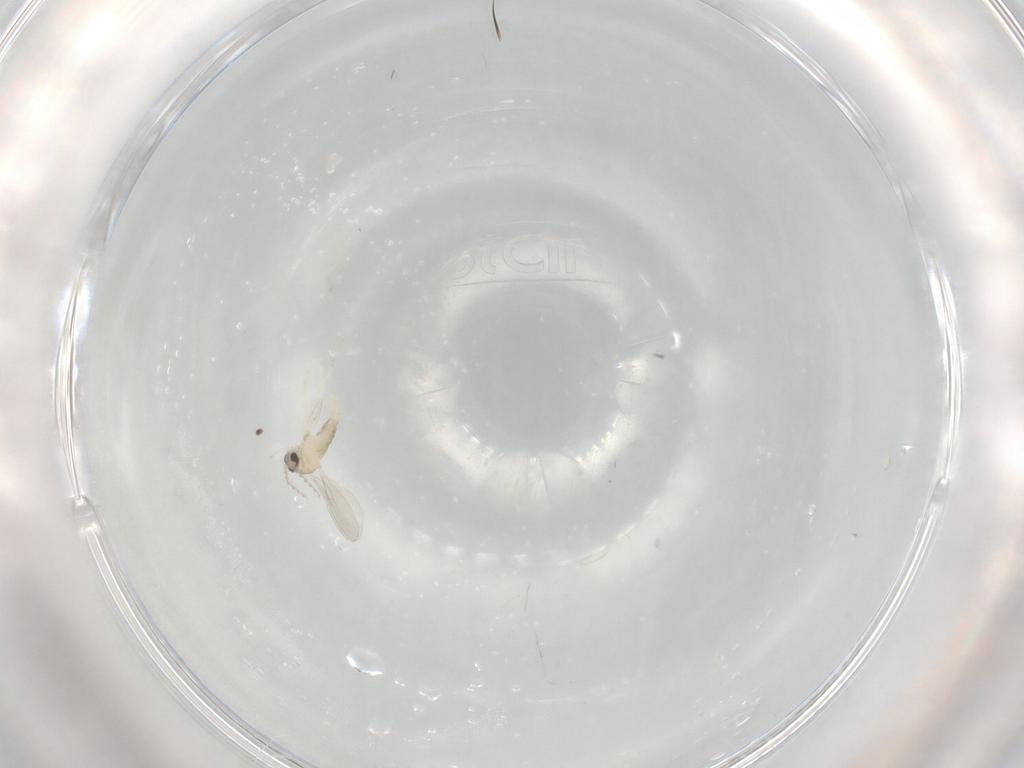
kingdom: Animalia
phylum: Arthropoda
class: Insecta
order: Diptera
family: Cecidomyiidae
